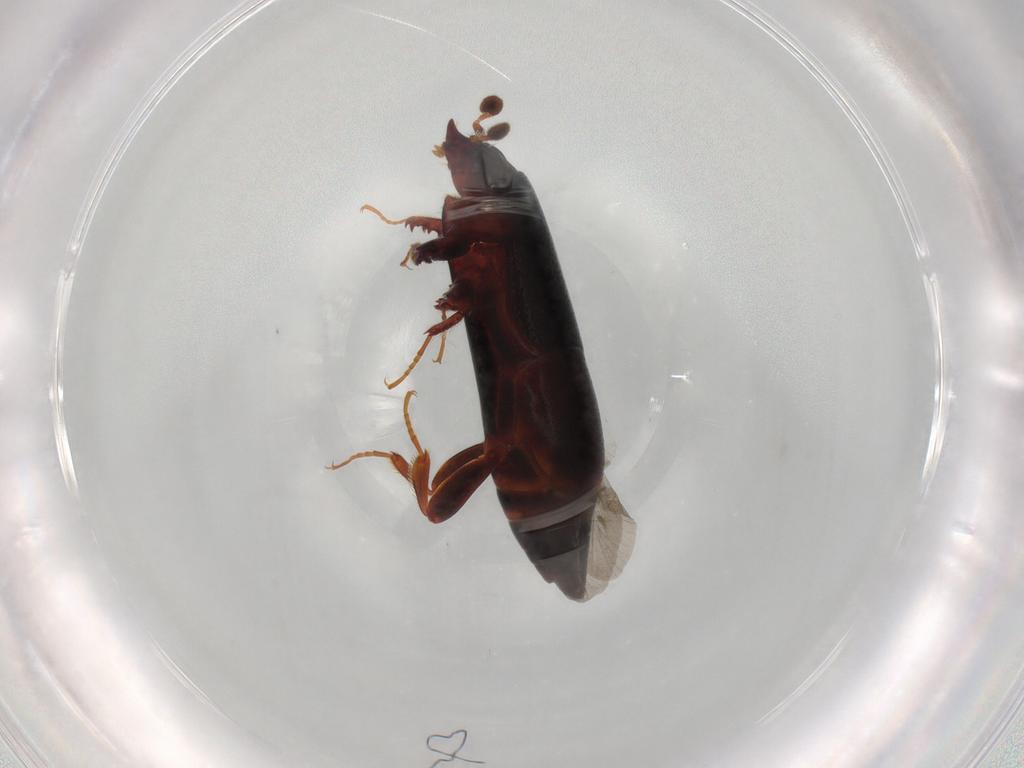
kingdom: Animalia
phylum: Arthropoda
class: Insecta
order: Coleoptera
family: Histeridae
